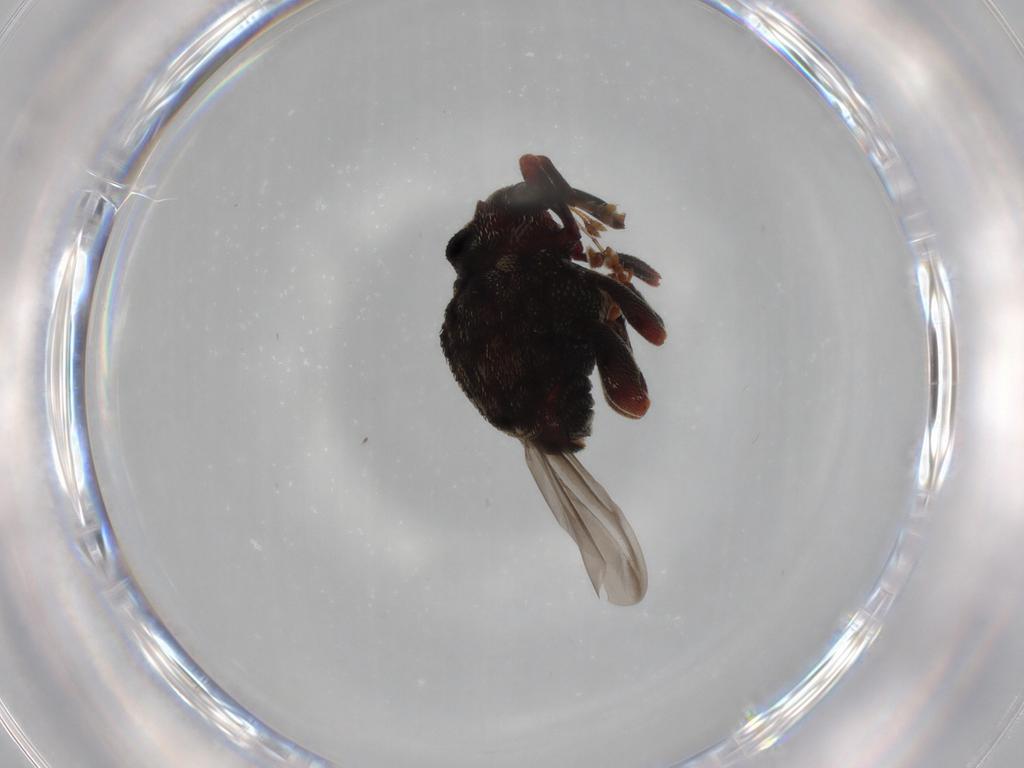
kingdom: Animalia
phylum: Arthropoda
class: Insecta
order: Coleoptera
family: Curculionidae
